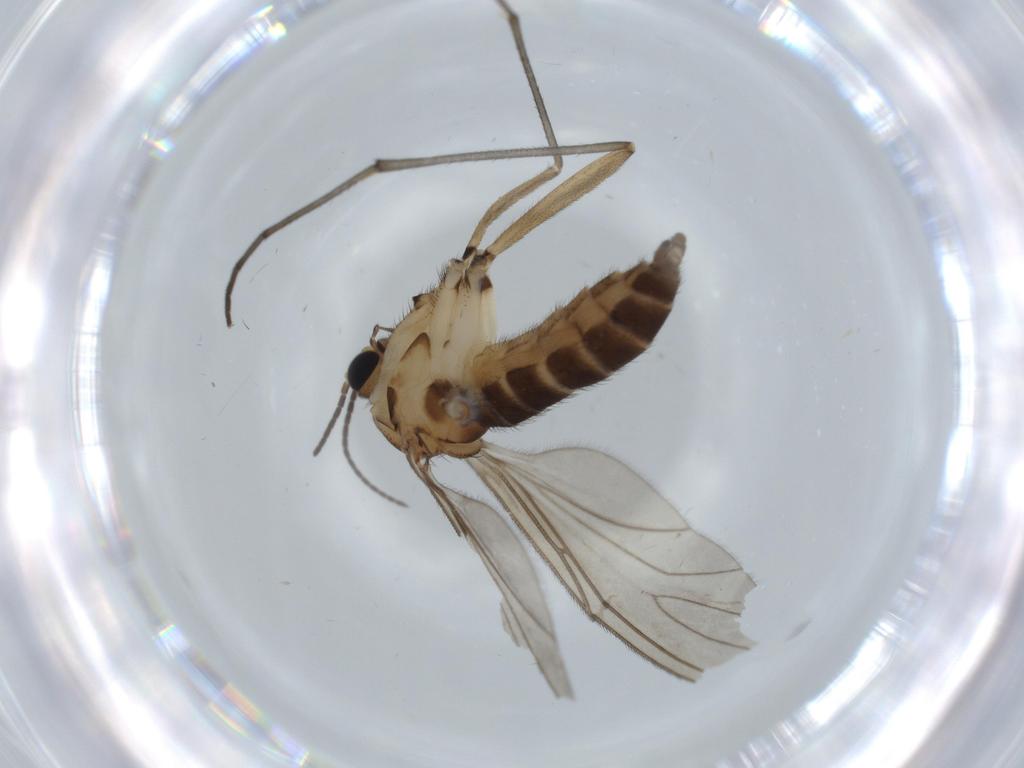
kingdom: Animalia
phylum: Arthropoda
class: Insecta
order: Diptera
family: Sciaridae
